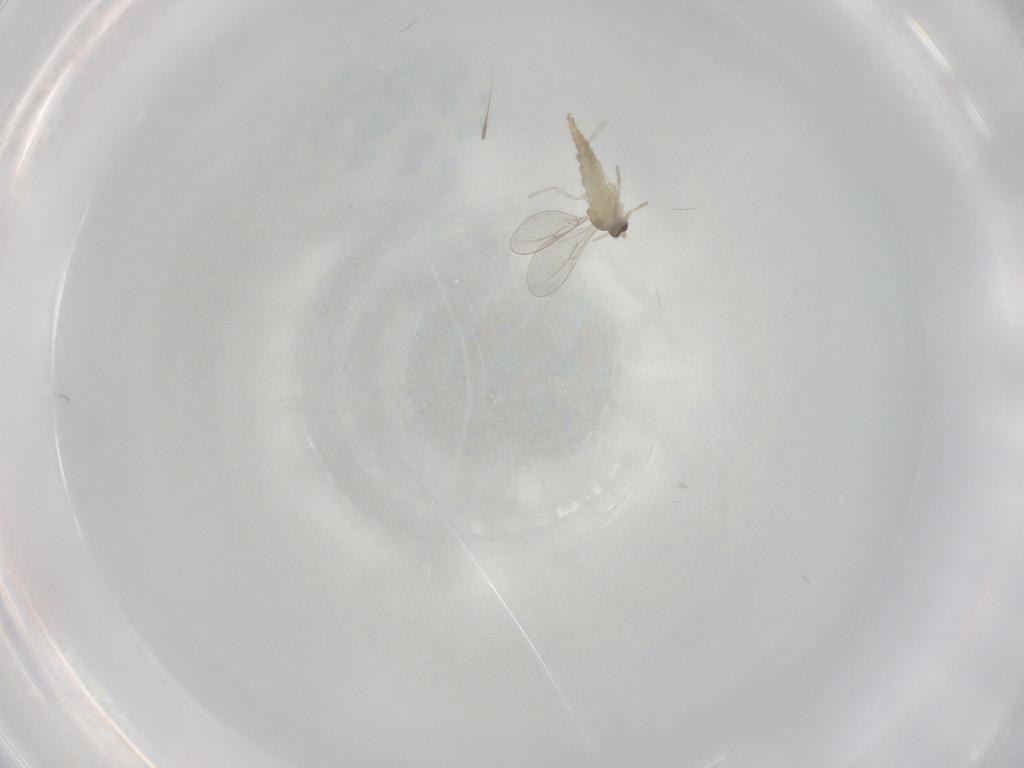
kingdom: Animalia
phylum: Arthropoda
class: Insecta
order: Diptera
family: Cecidomyiidae
